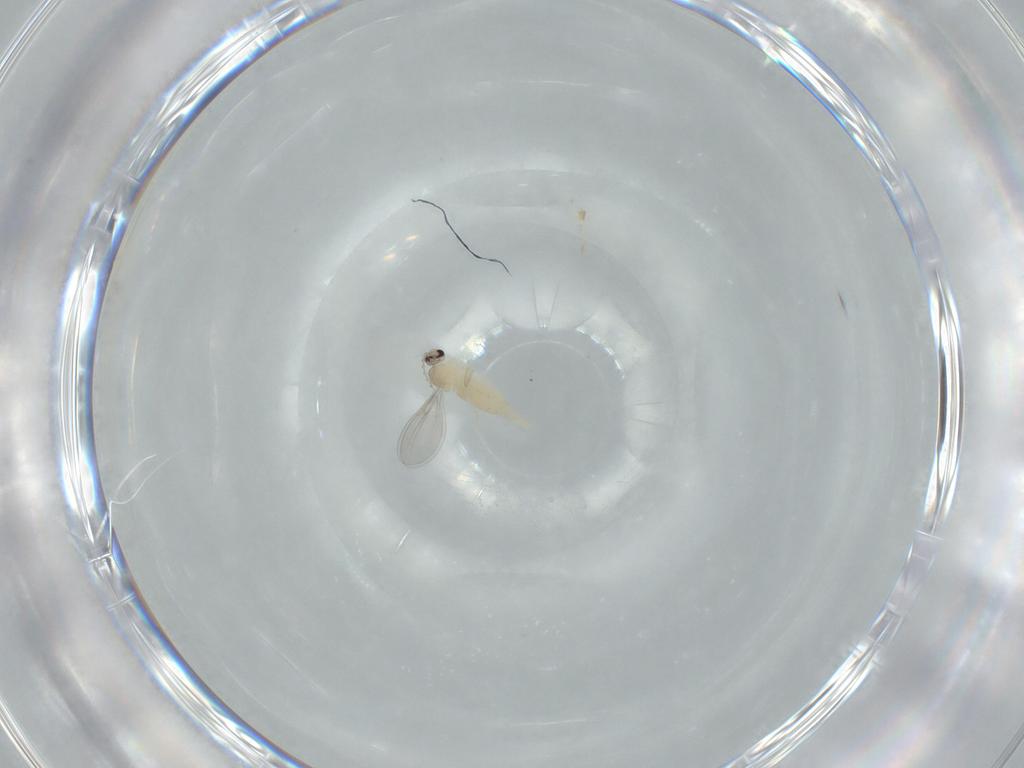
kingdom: Animalia
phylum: Arthropoda
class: Insecta
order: Diptera
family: Cecidomyiidae
